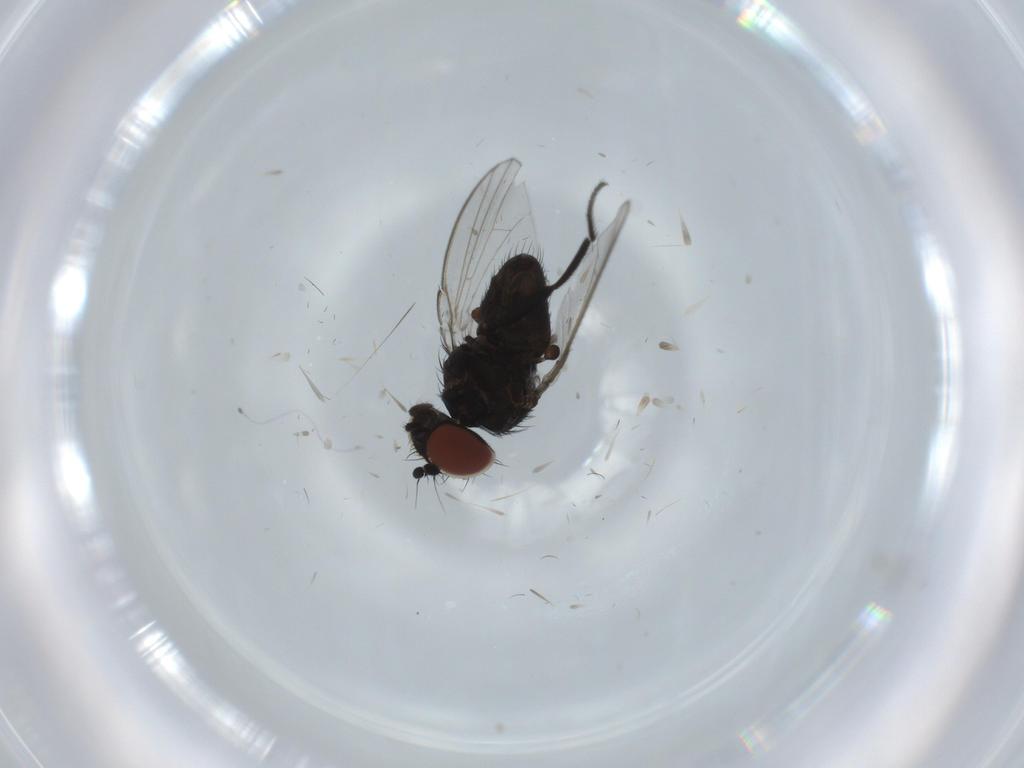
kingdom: Animalia
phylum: Arthropoda
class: Insecta
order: Diptera
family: Milichiidae
